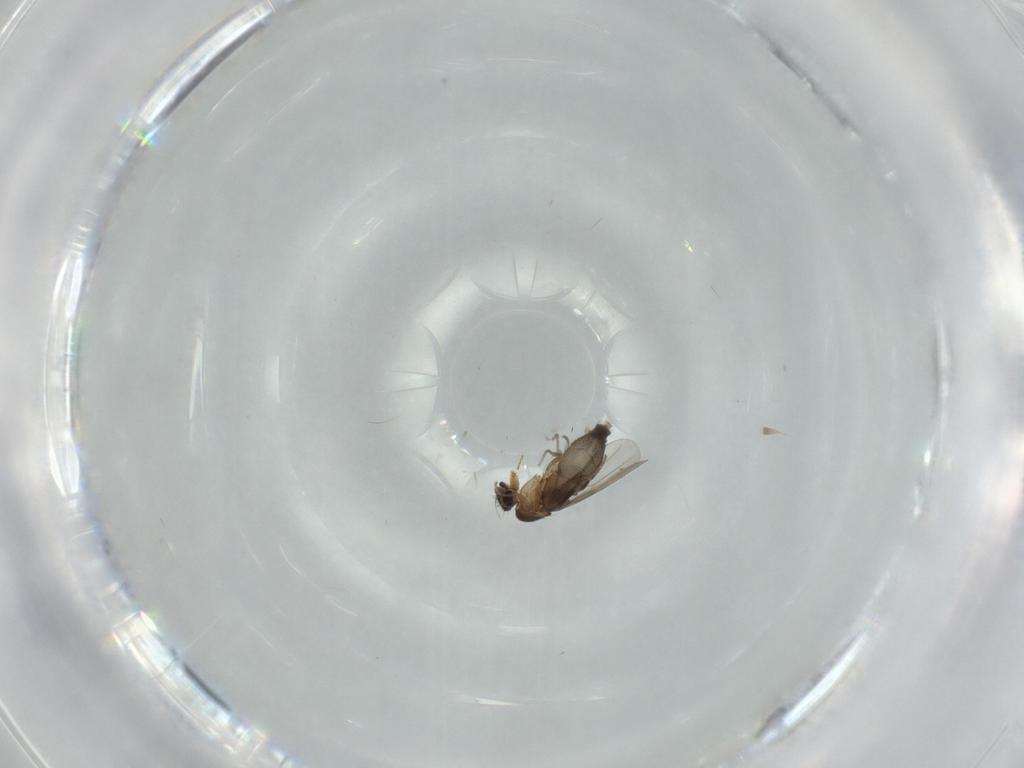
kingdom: Animalia
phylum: Arthropoda
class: Insecta
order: Diptera
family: Phoridae
